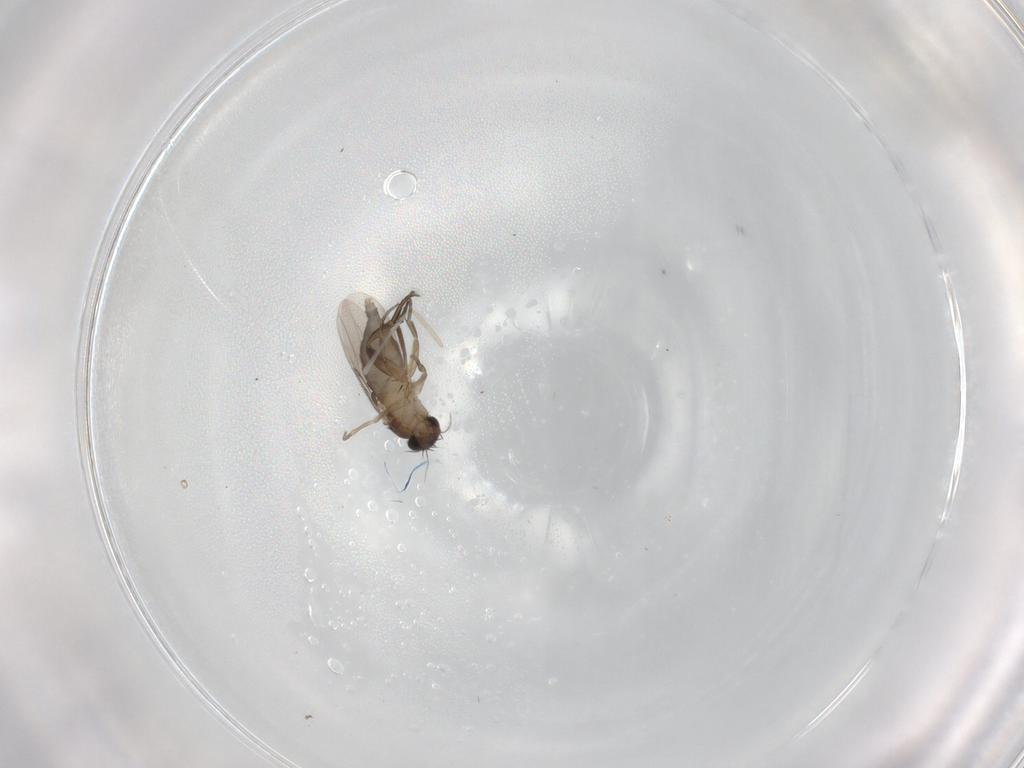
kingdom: Animalia
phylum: Arthropoda
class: Insecta
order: Diptera
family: Phoridae
